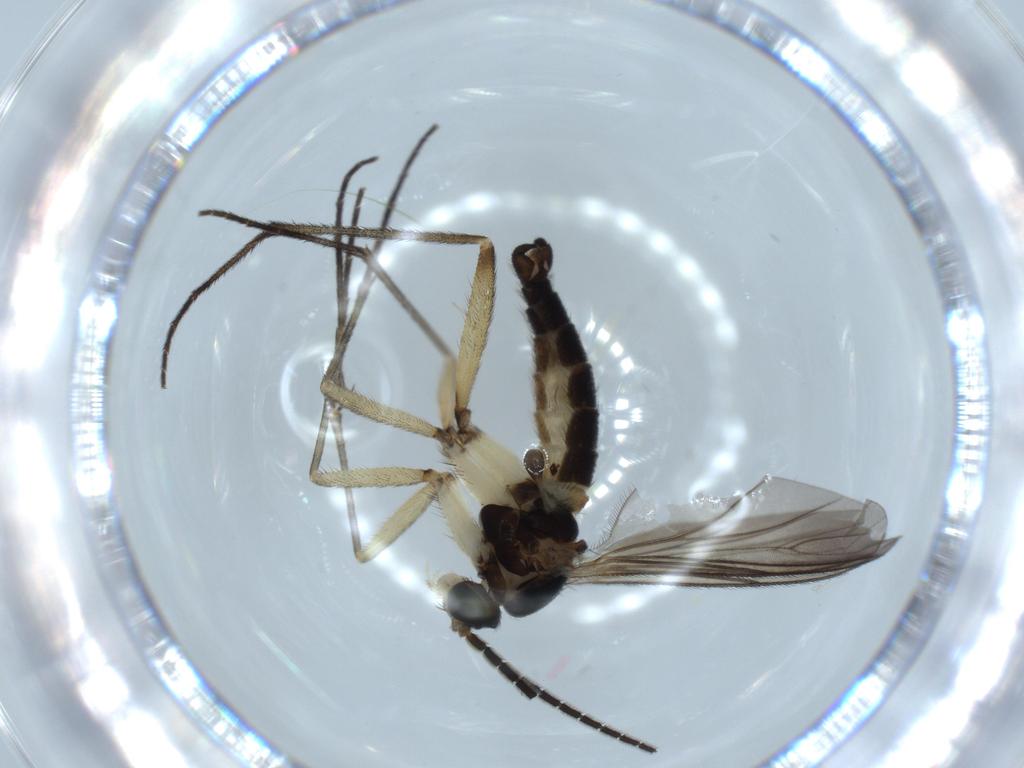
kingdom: Animalia
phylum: Arthropoda
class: Insecta
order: Diptera
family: Sciaridae
